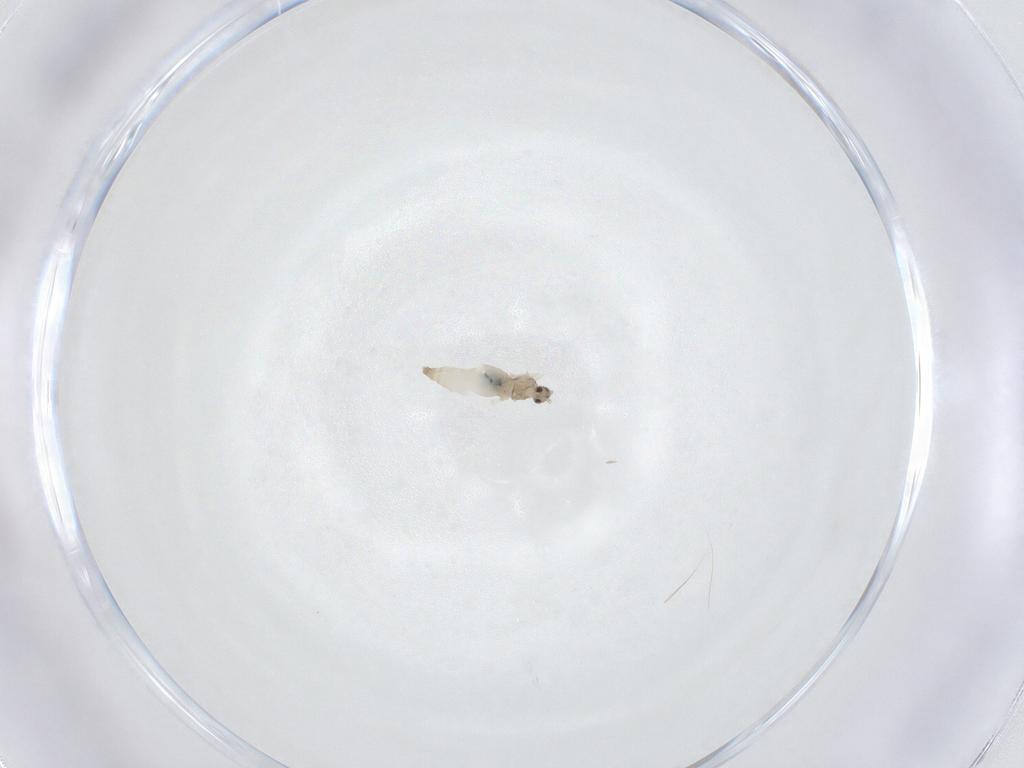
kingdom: Animalia
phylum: Arthropoda
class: Insecta
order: Diptera
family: Cecidomyiidae
